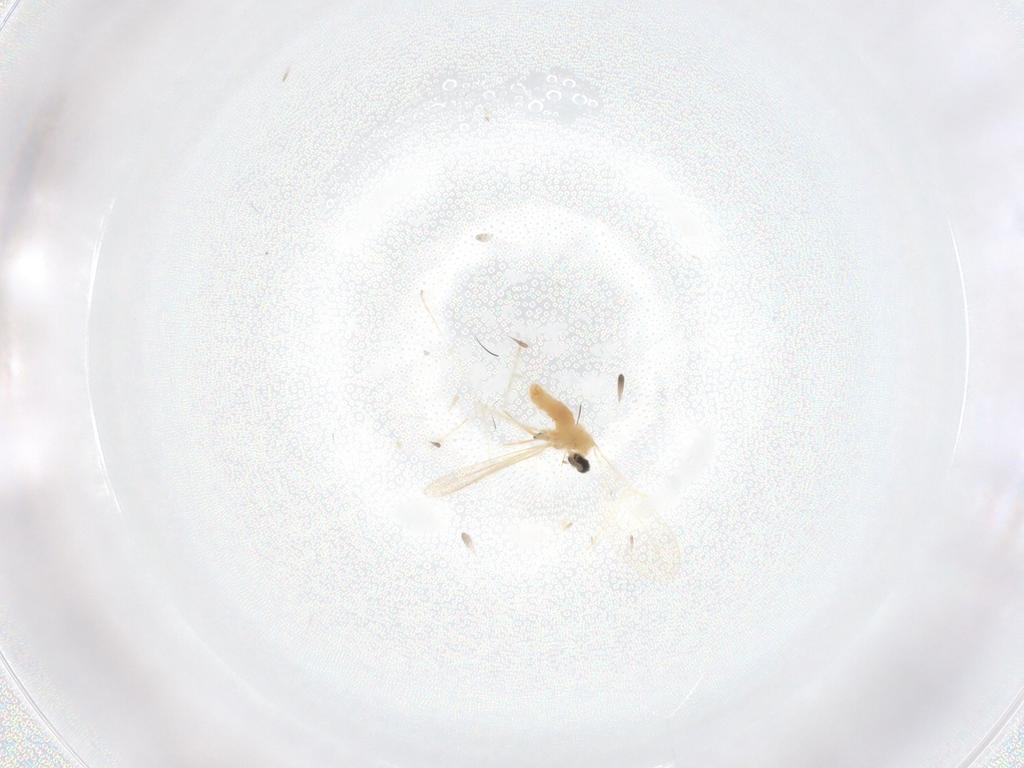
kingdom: Animalia
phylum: Arthropoda
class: Insecta
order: Diptera
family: Cecidomyiidae
